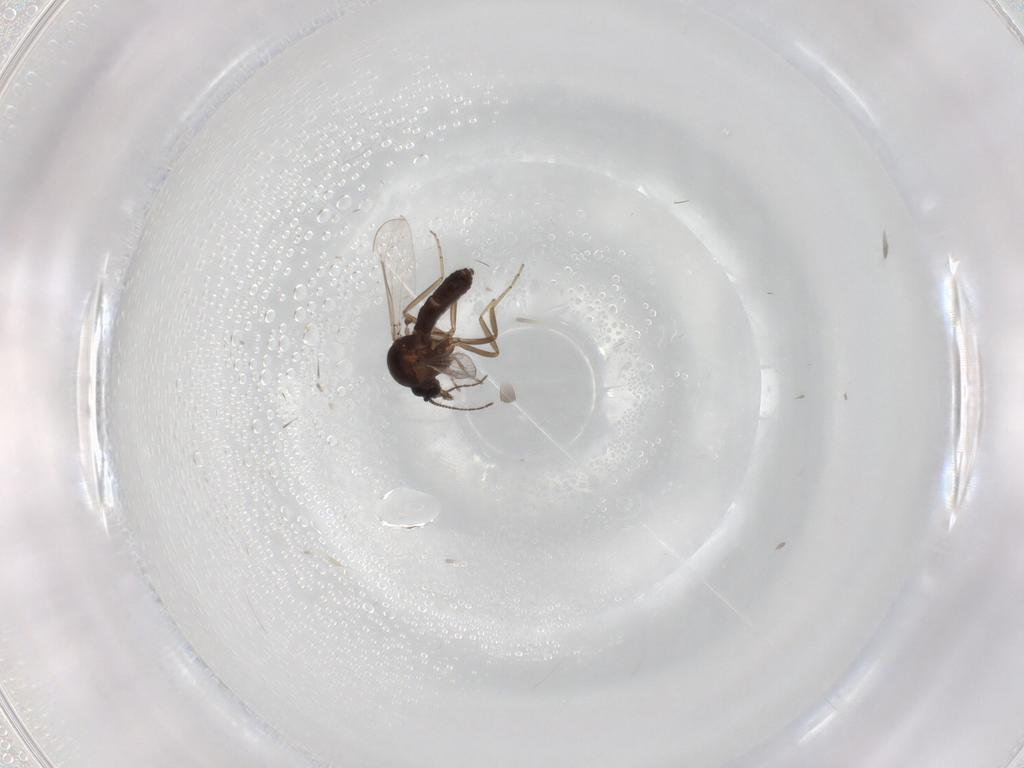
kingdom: Animalia
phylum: Arthropoda
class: Insecta
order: Diptera
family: Ceratopogonidae
